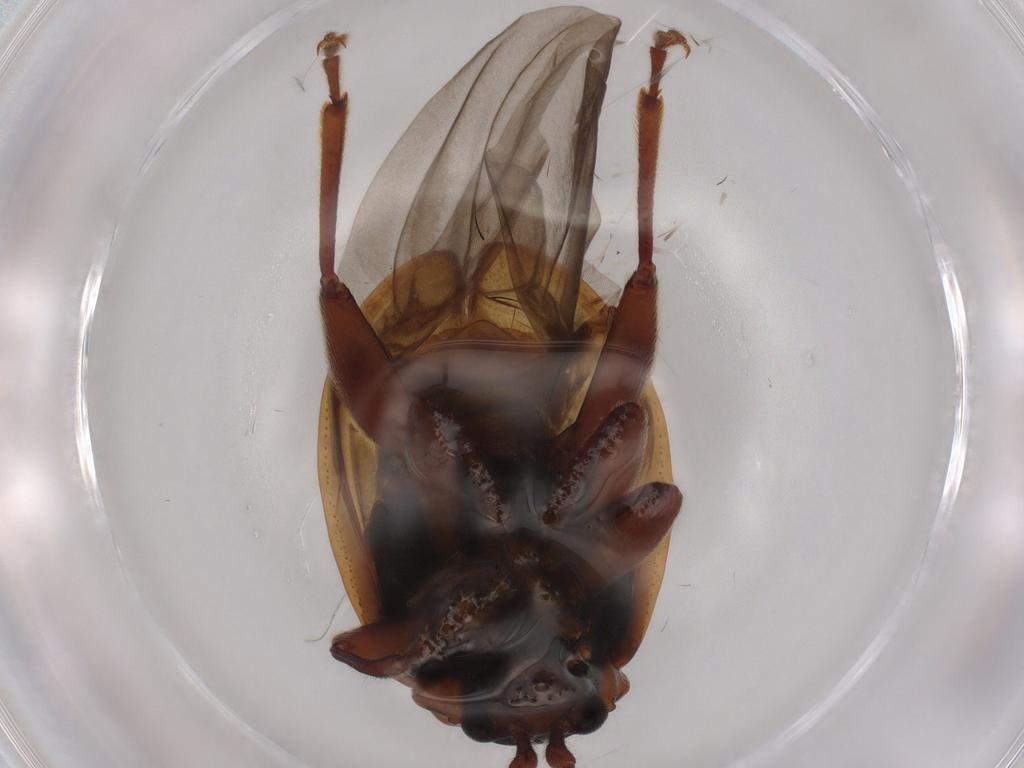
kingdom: Animalia
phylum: Arthropoda
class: Insecta
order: Coleoptera
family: Chrysomelidae
